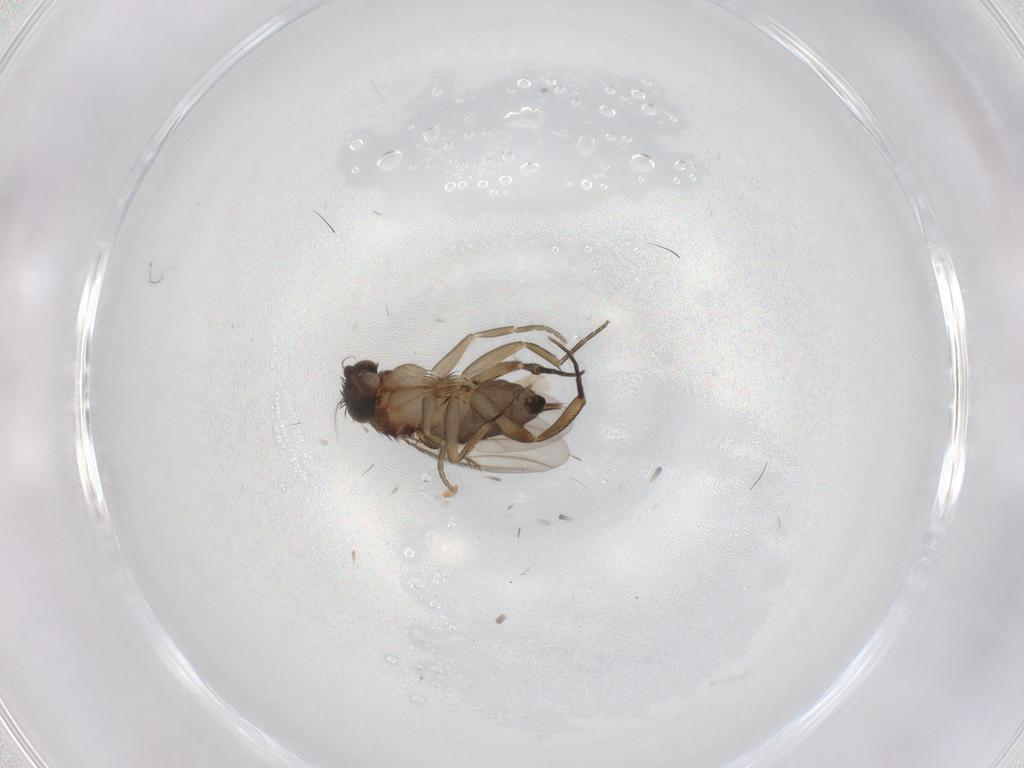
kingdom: Animalia
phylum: Arthropoda
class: Insecta
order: Diptera
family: Phoridae
